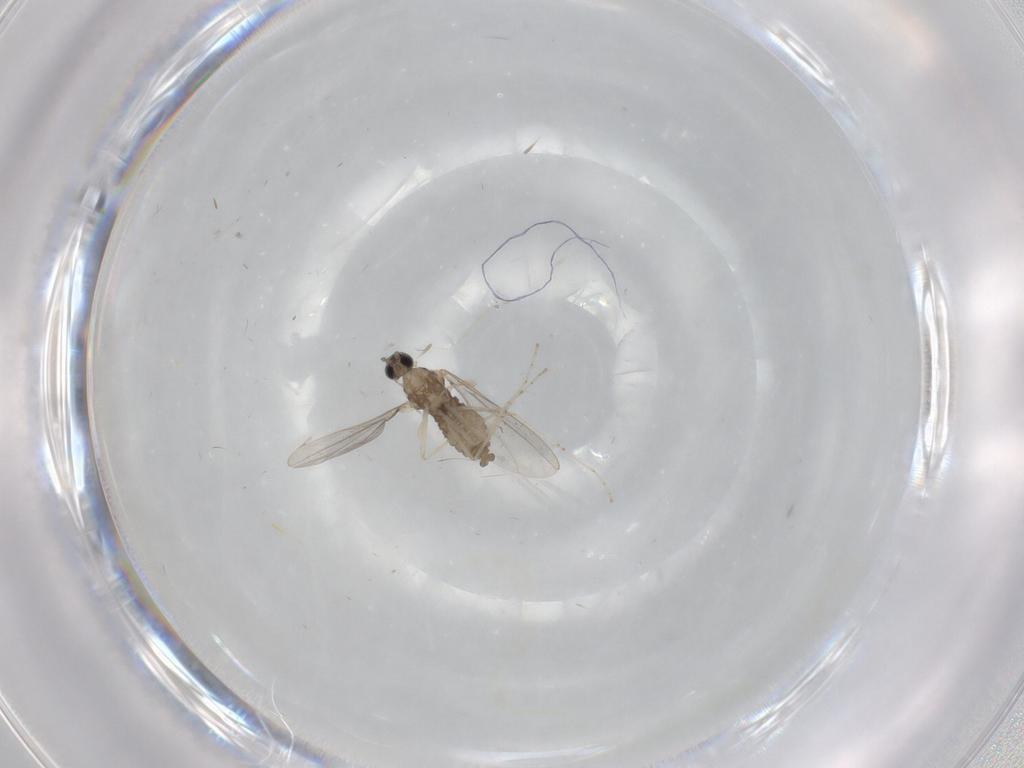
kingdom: Animalia
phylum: Arthropoda
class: Insecta
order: Diptera
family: Cecidomyiidae
